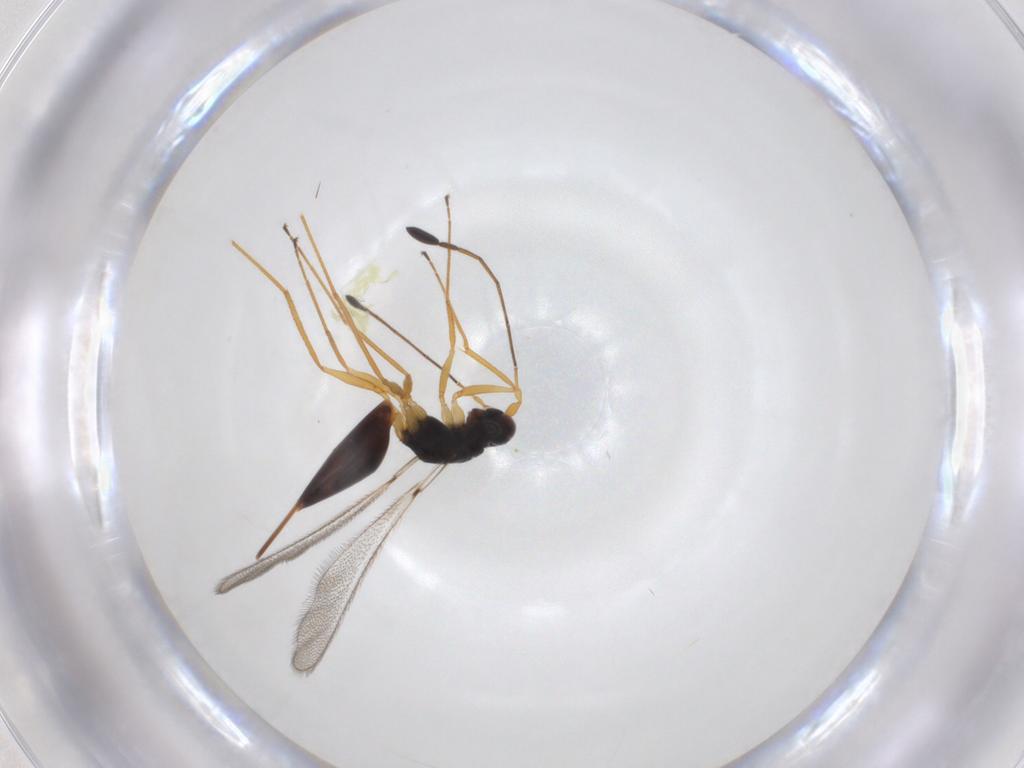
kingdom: Animalia
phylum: Arthropoda
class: Insecta
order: Hymenoptera
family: Mymaridae
